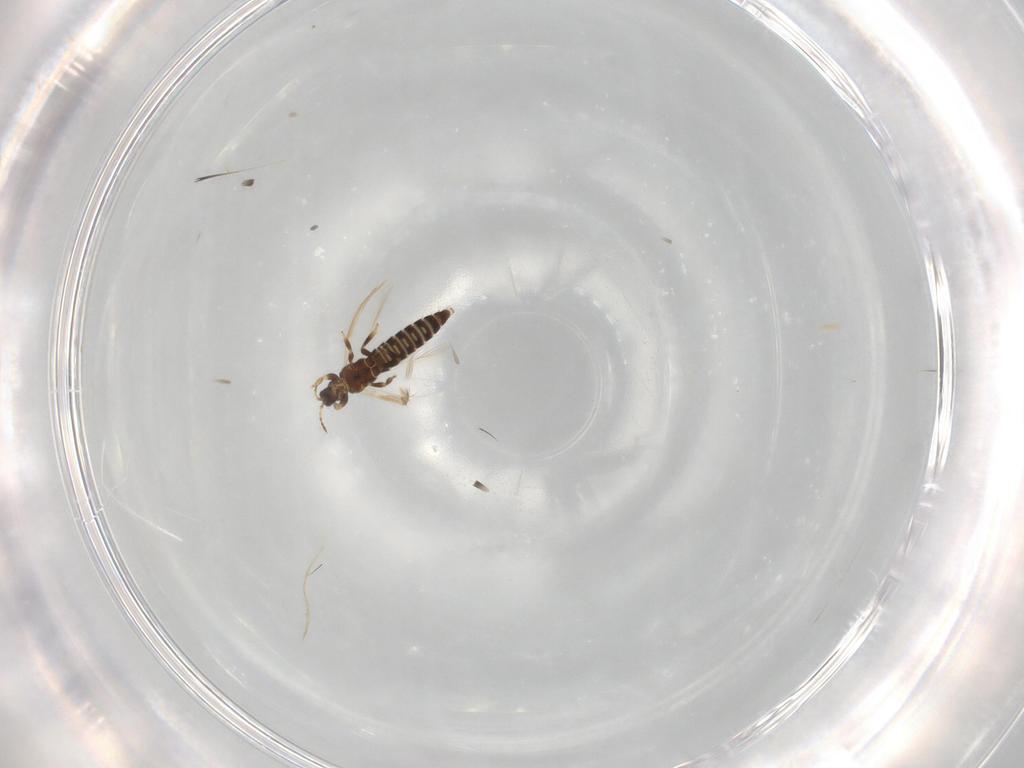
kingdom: Animalia
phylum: Arthropoda
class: Insecta
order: Thysanoptera
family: Thripidae
